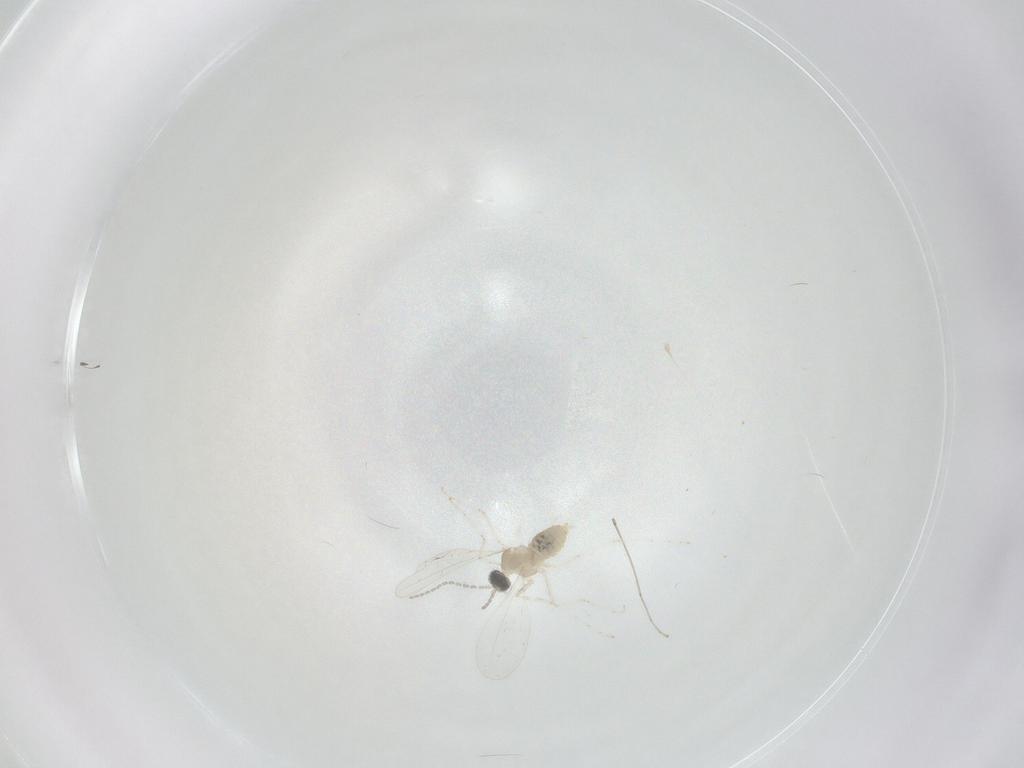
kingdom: Animalia
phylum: Arthropoda
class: Insecta
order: Diptera
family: Cecidomyiidae
